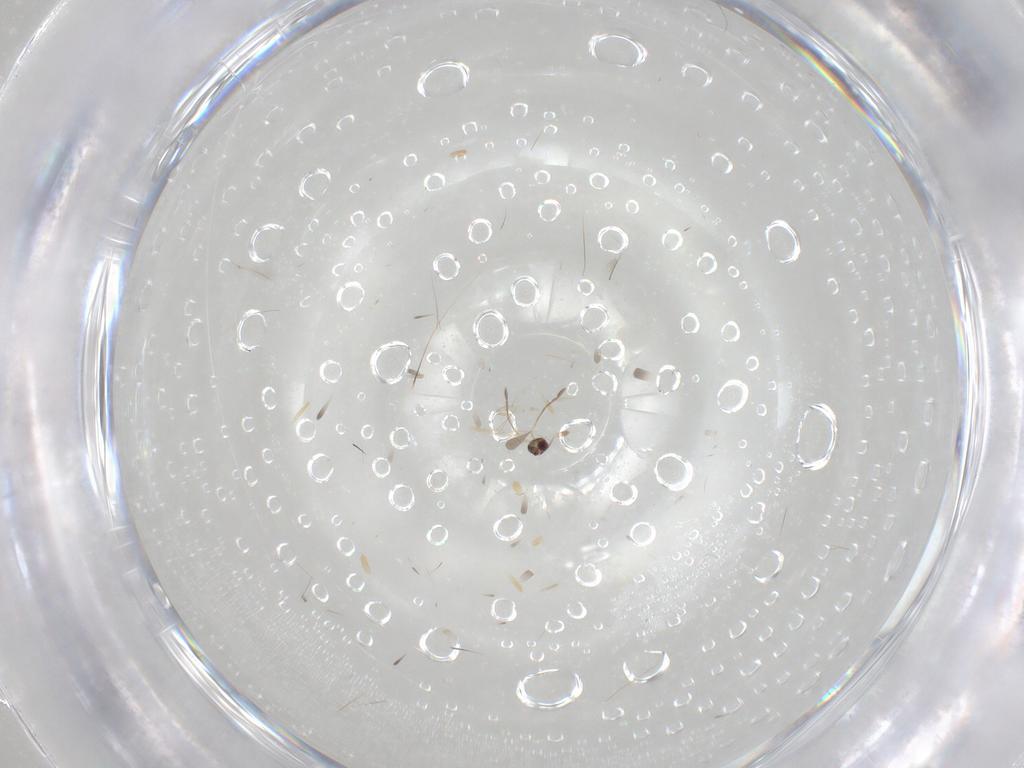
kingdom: Animalia
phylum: Arthropoda
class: Insecta
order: Hymenoptera
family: Mymaridae
